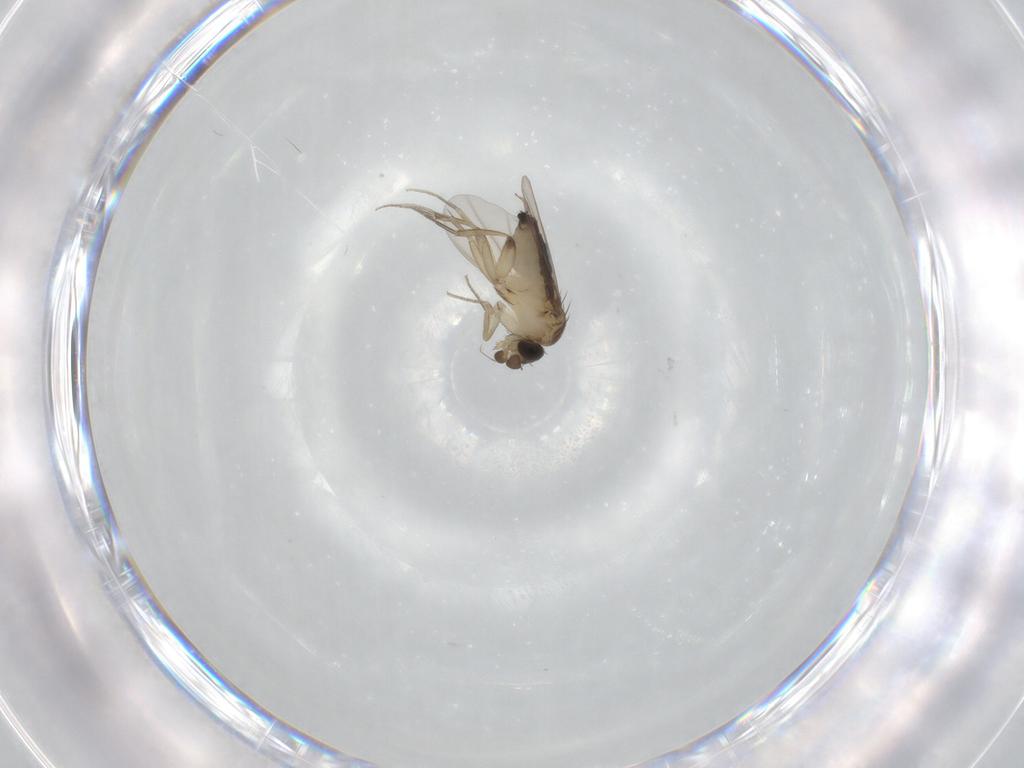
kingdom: Animalia
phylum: Arthropoda
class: Insecta
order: Diptera
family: Phoridae
